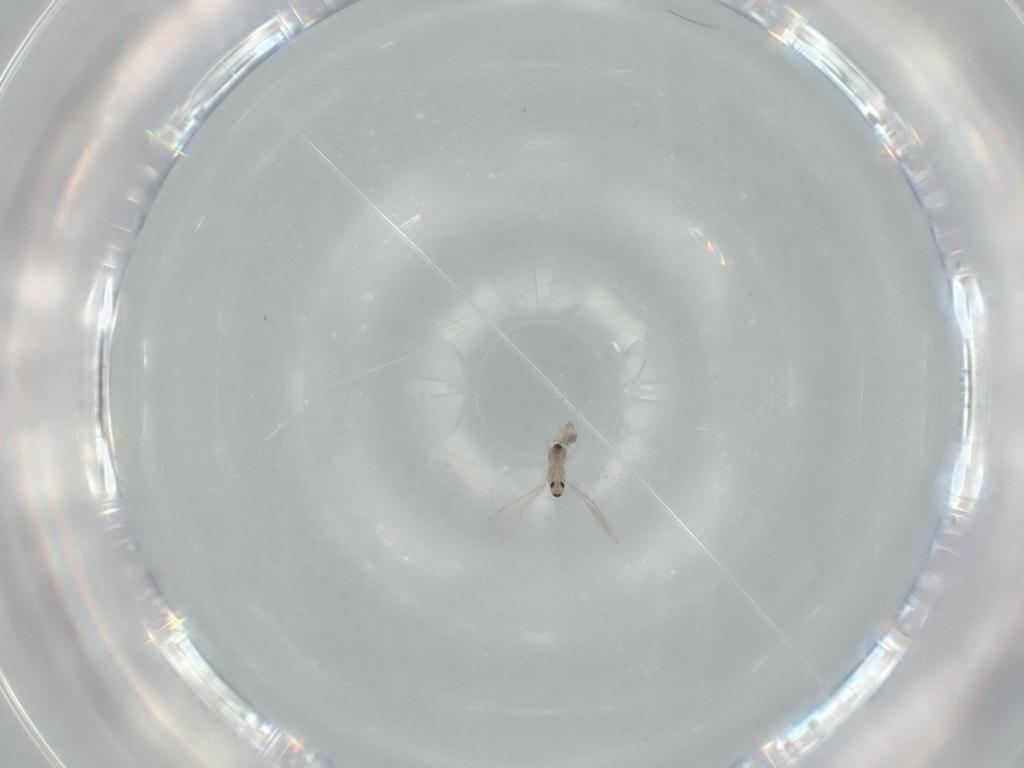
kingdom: Animalia
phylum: Arthropoda
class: Insecta
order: Diptera
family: Cecidomyiidae
